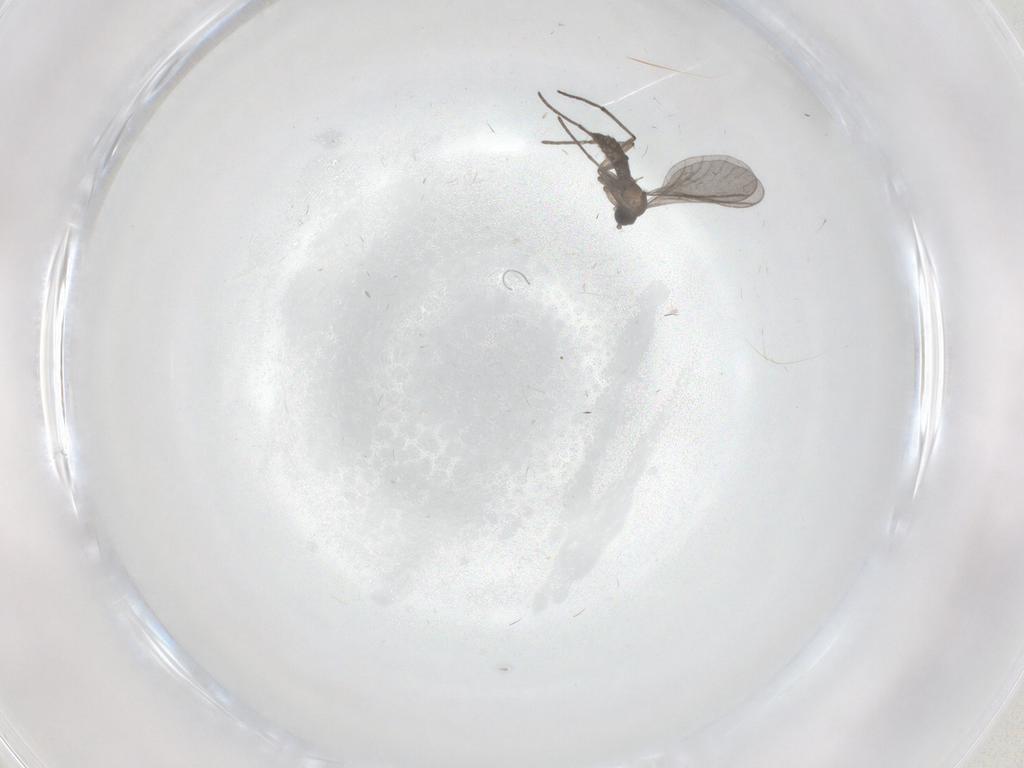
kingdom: Animalia
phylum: Arthropoda
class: Insecta
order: Diptera
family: Sciaridae
